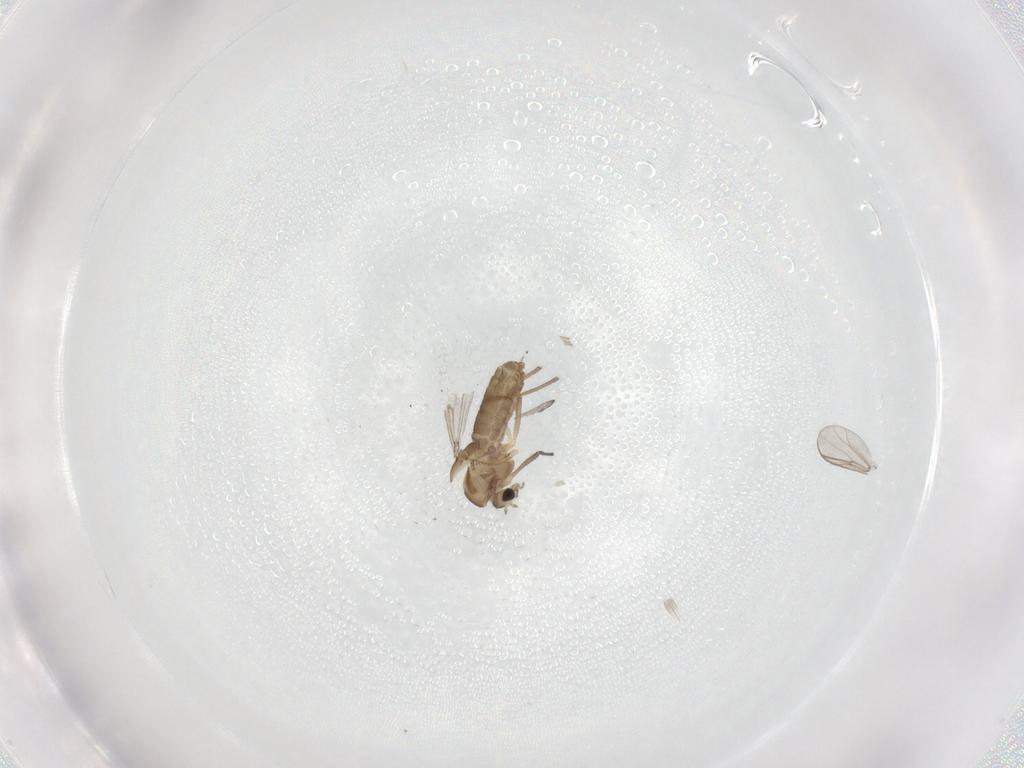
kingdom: Animalia
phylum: Arthropoda
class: Insecta
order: Diptera
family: Chironomidae
